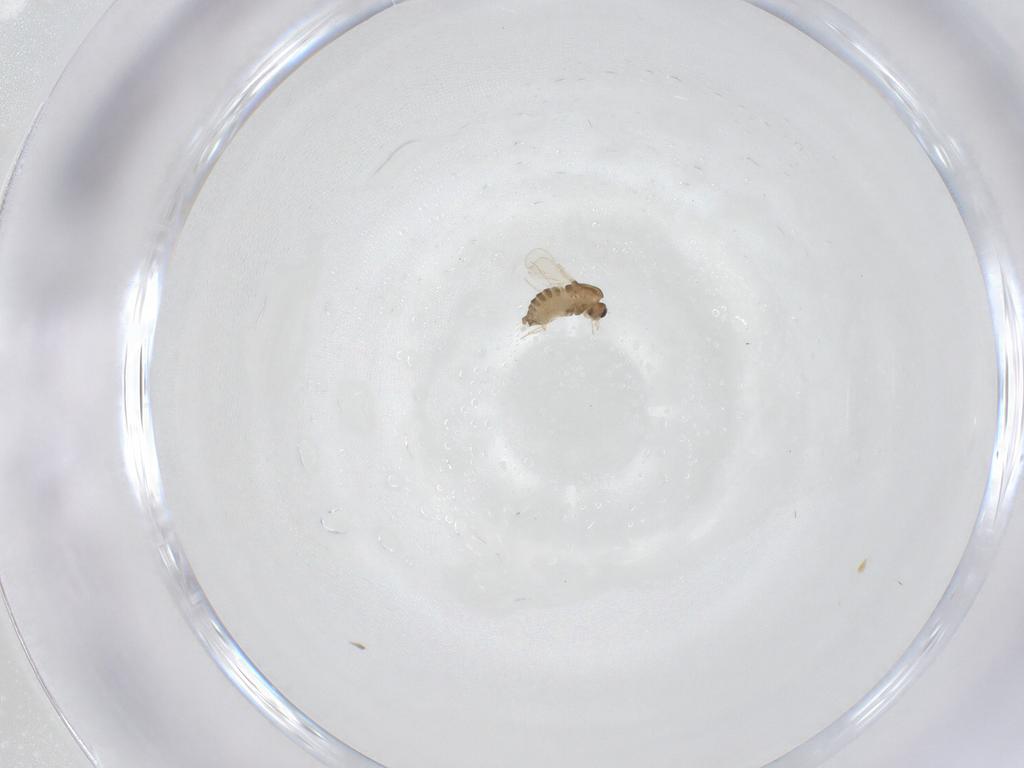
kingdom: Animalia
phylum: Arthropoda
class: Insecta
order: Diptera
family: Chironomidae
